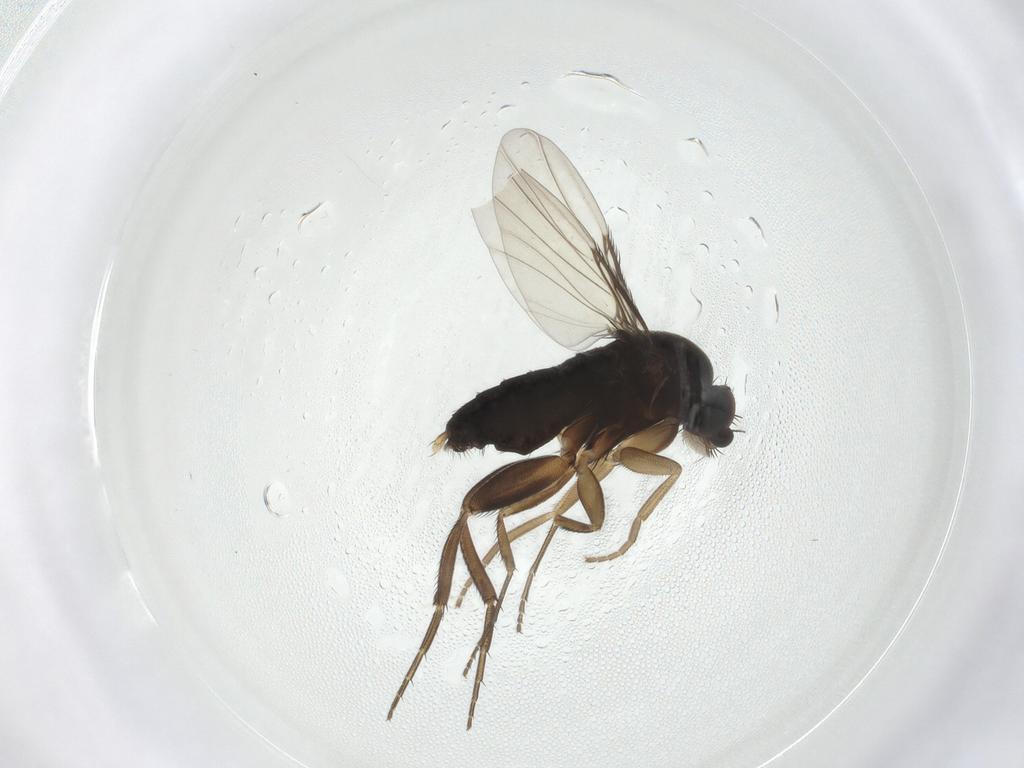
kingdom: Animalia
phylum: Arthropoda
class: Insecta
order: Diptera
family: Phoridae
